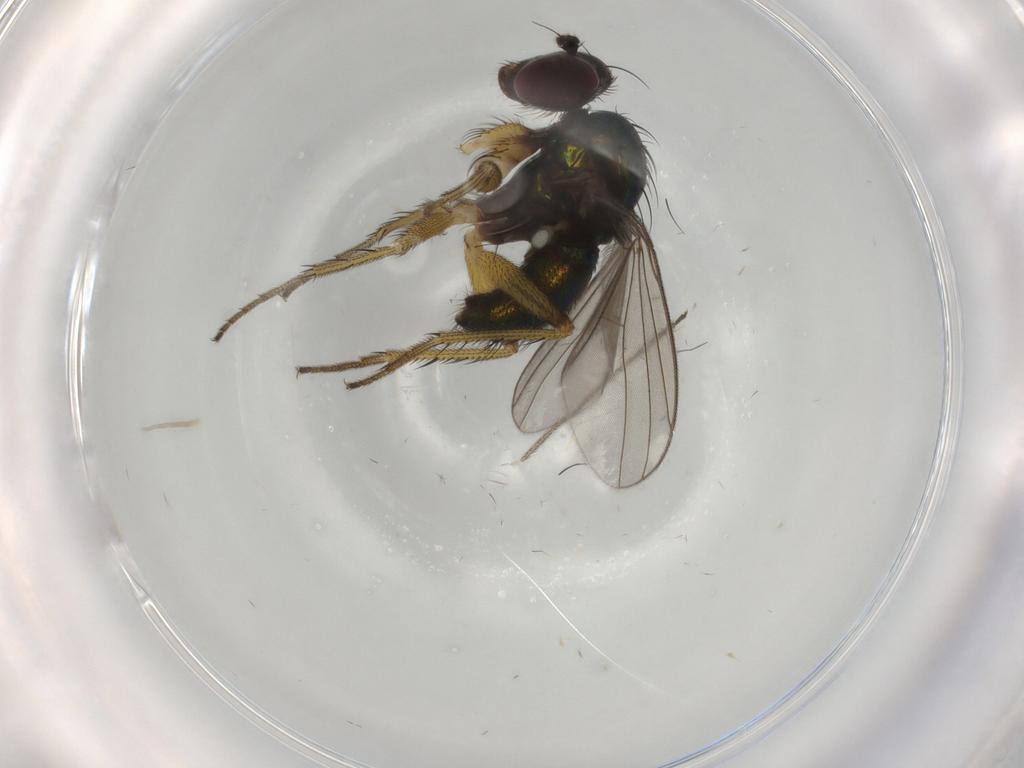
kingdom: Animalia
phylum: Arthropoda
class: Insecta
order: Diptera
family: Dolichopodidae
